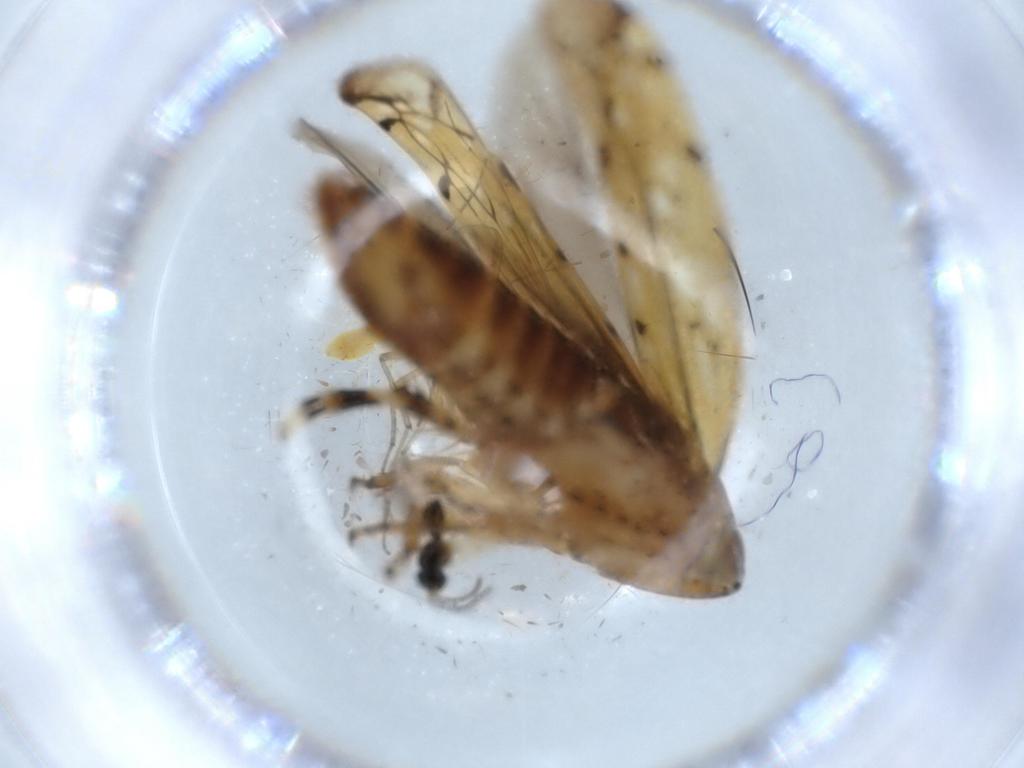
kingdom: Animalia
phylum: Arthropoda
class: Insecta
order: Diptera
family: Cecidomyiidae
